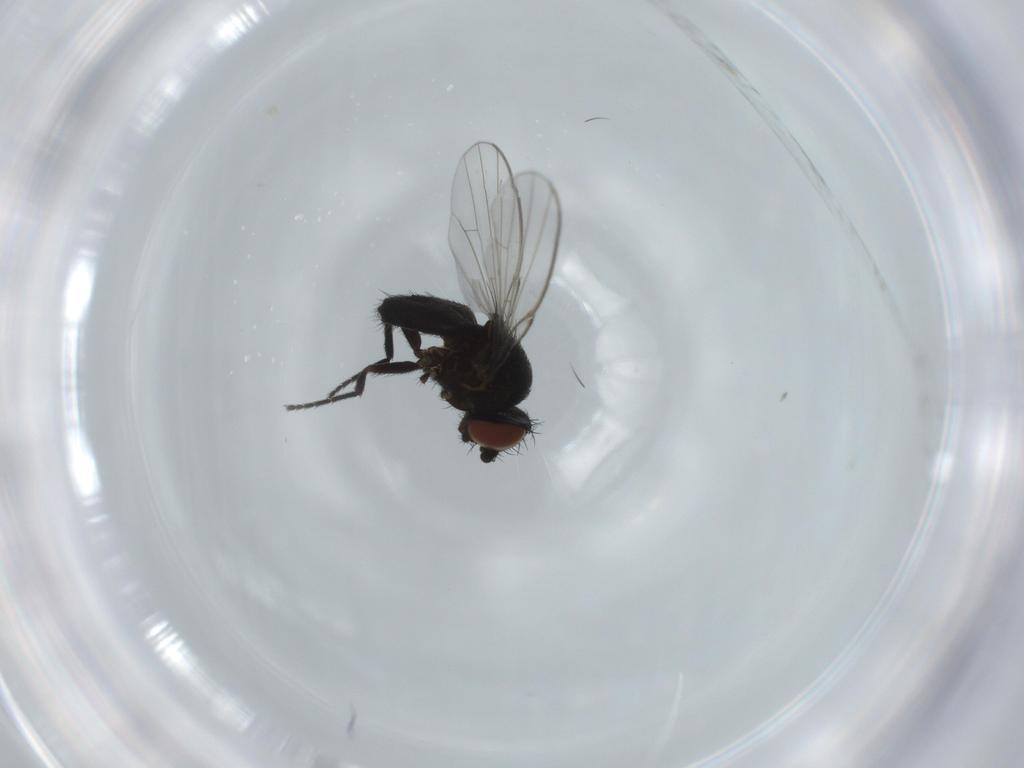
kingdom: Animalia
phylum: Arthropoda
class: Insecta
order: Diptera
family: Milichiidae
